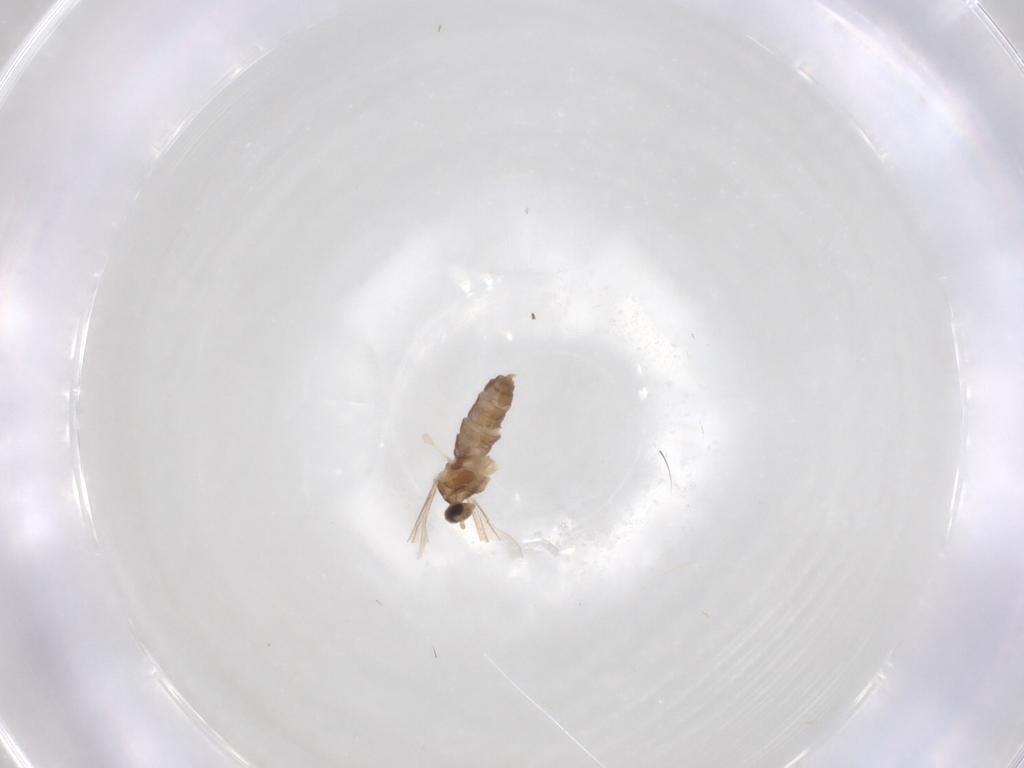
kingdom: Animalia
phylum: Arthropoda
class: Insecta
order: Diptera
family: Cecidomyiidae
